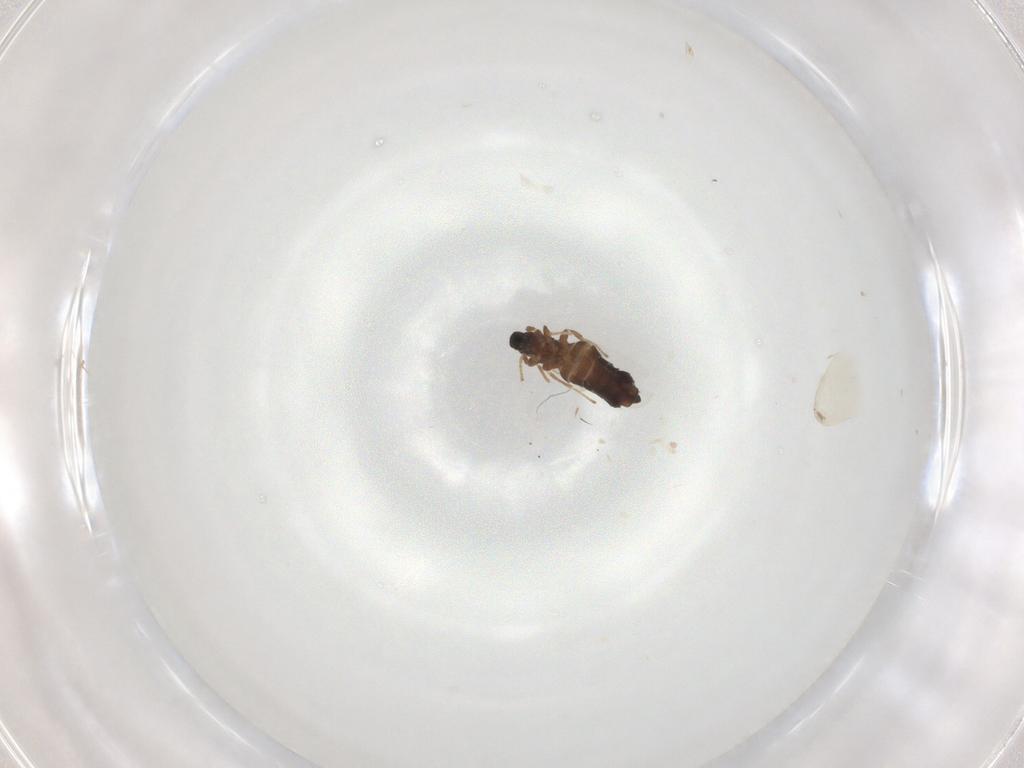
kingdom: Animalia
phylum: Arthropoda
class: Insecta
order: Diptera
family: Scatopsidae
